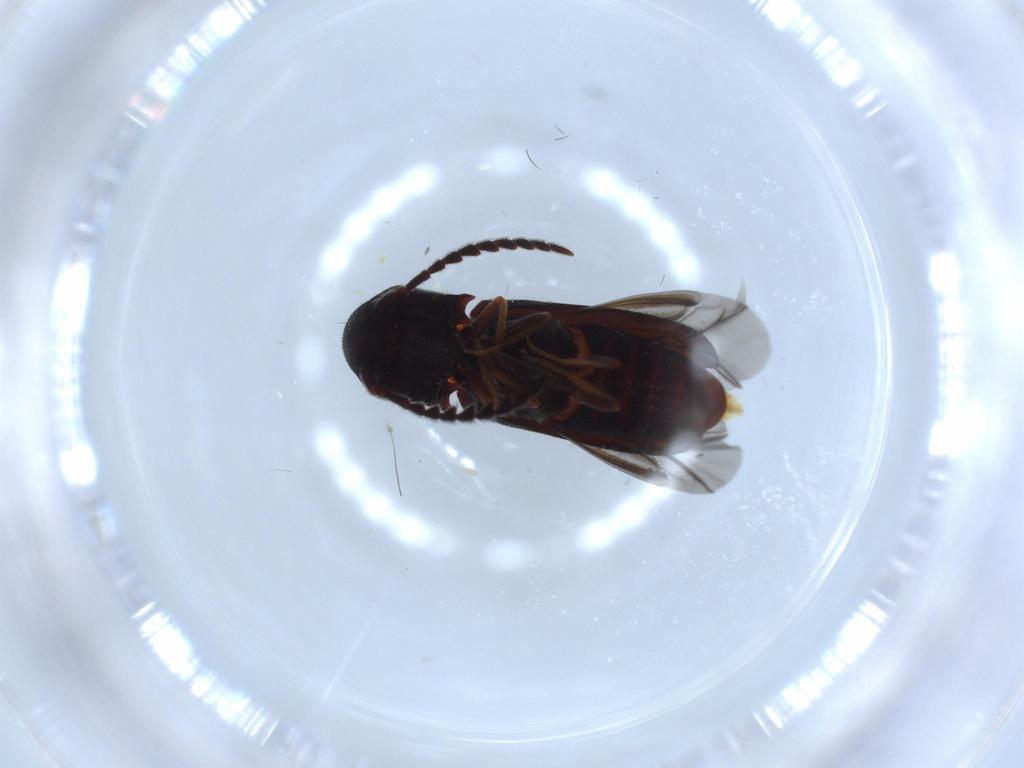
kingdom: Animalia
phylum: Arthropoda
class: Insecta
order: Coleoptera
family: Eucnemidae
